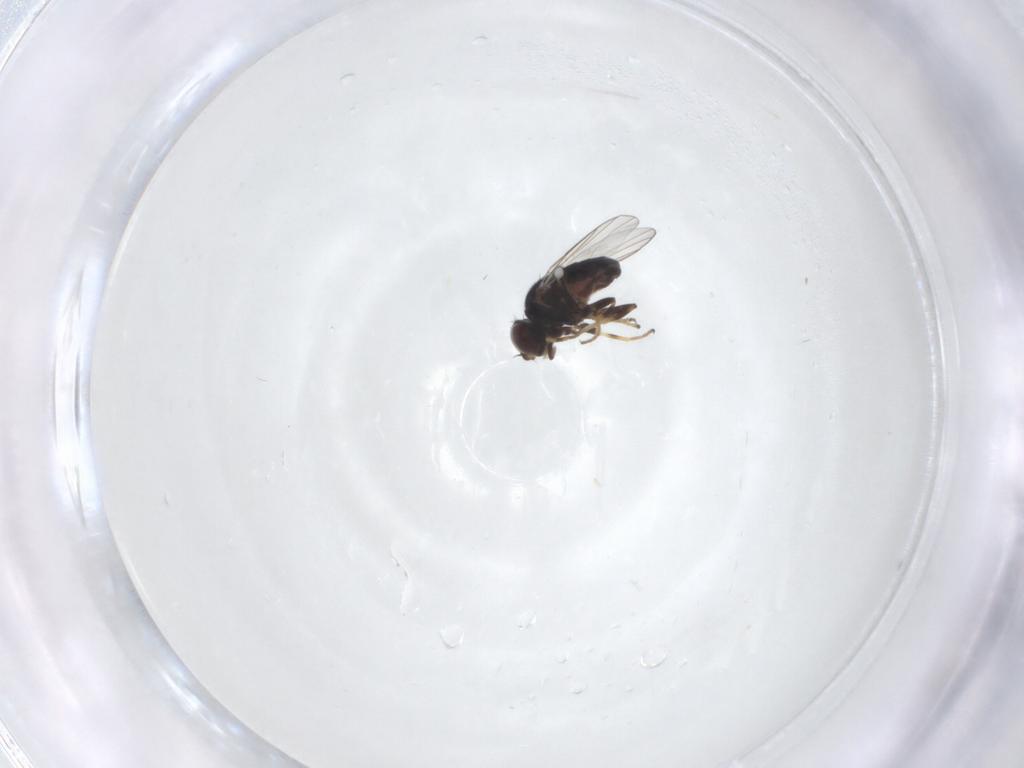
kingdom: Animalia
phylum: Arthropoda
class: Insecta
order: Diptera
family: Chloropidae
